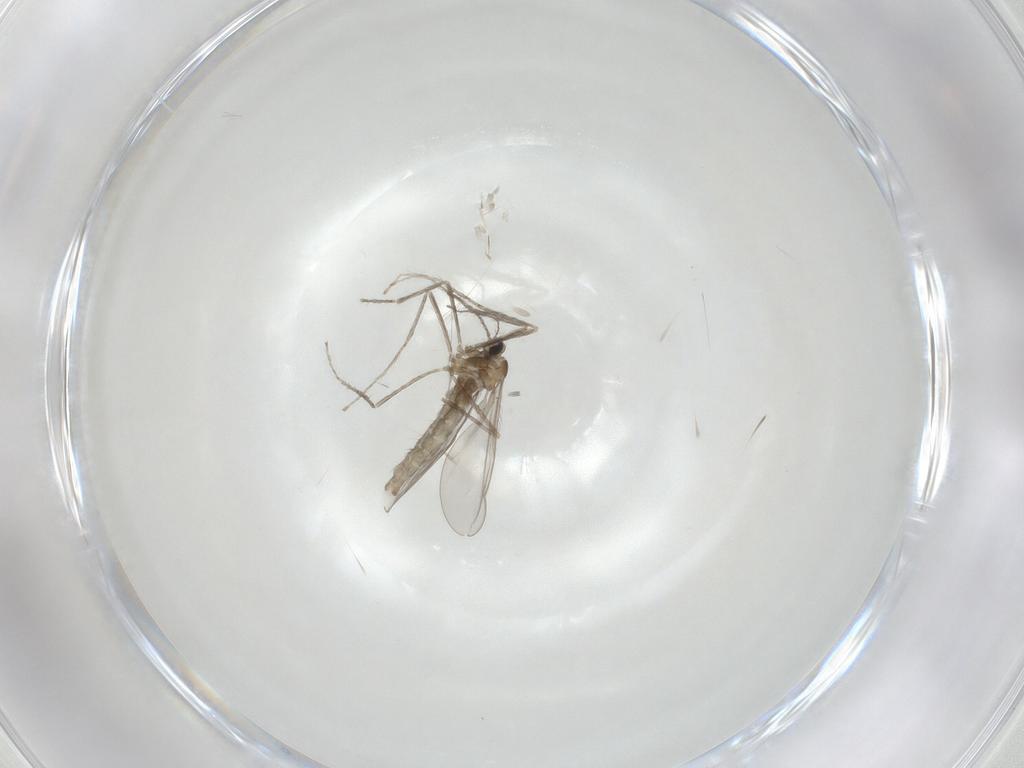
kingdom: Animalia
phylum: Arthropoda
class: Insecta
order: Diptera
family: Cecidomyiidae
